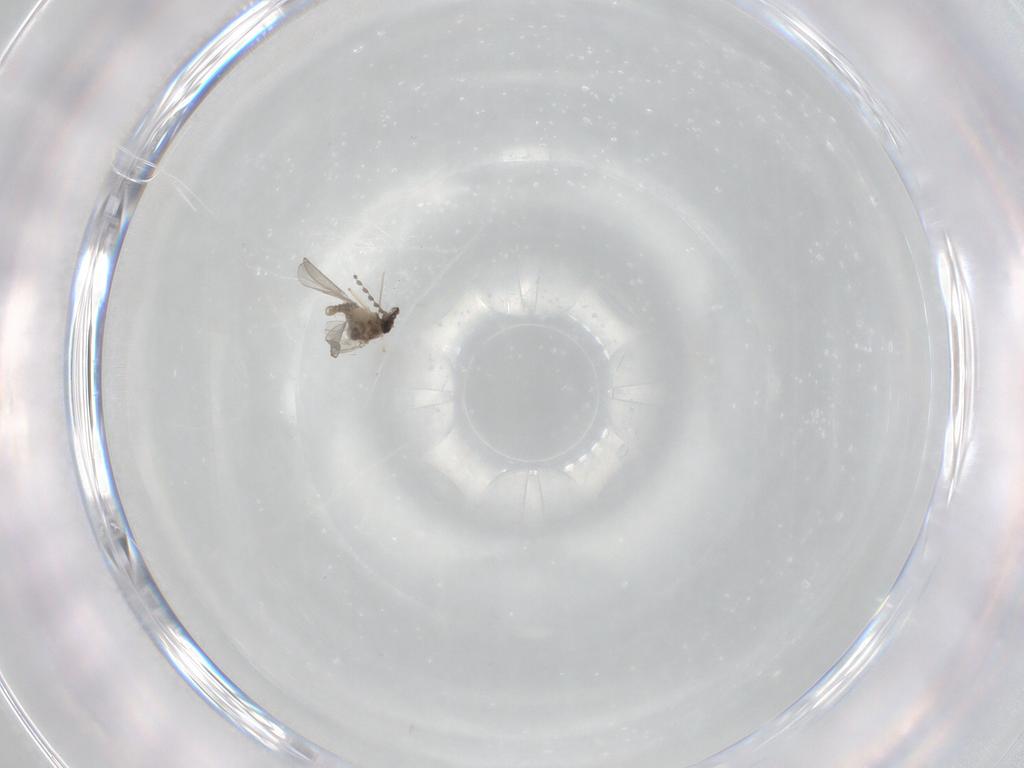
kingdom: Animalia
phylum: Arthropoda
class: Insecta
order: Diptera
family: Cecidomyiidae
